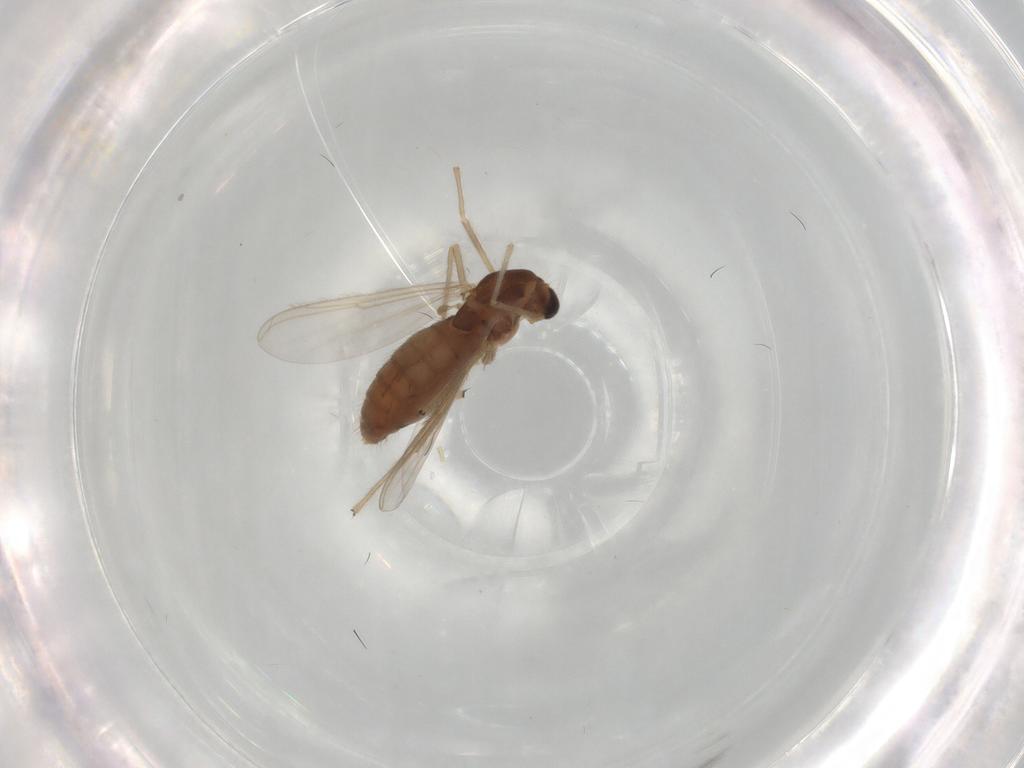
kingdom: Animalia
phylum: Arthropoda
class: Insecta
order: Diptera
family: Chironomidae
